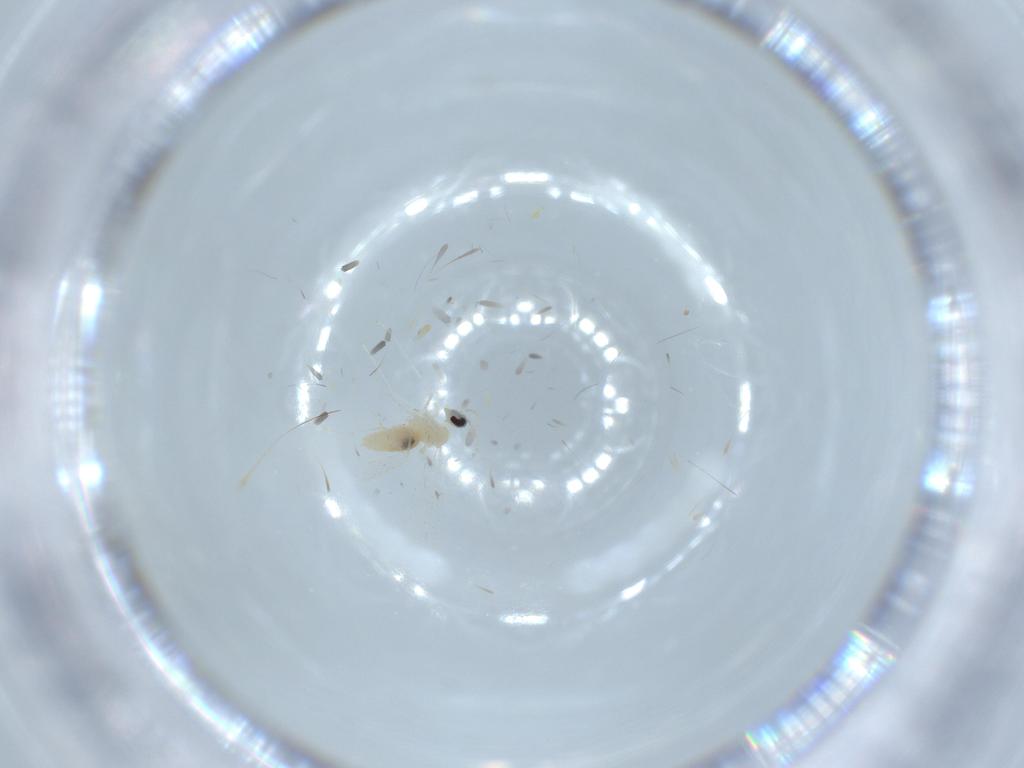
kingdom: Animalia
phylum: Arthropoda
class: Insecta
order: Diptera
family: Cecidomyiidae
